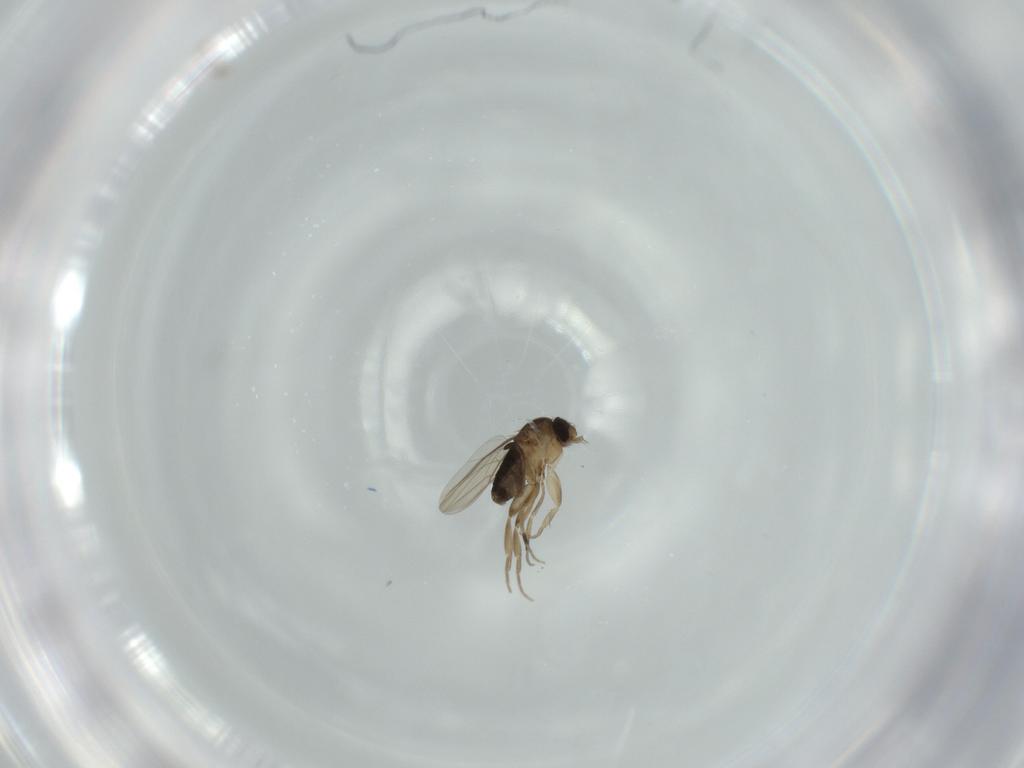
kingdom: Animalia
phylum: Arthropoda
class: Insecta
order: Diptera
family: Phoridae
